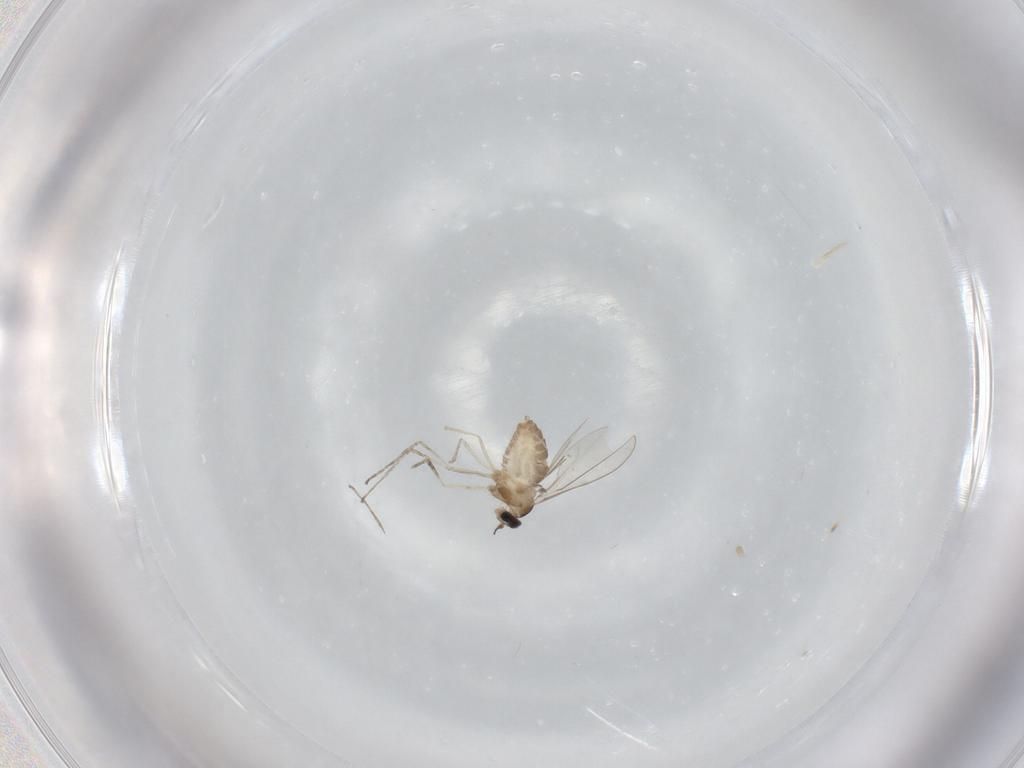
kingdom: Animalia
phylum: Arthropoda
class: Insecta
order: Diptera
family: Cecidomyiidae
